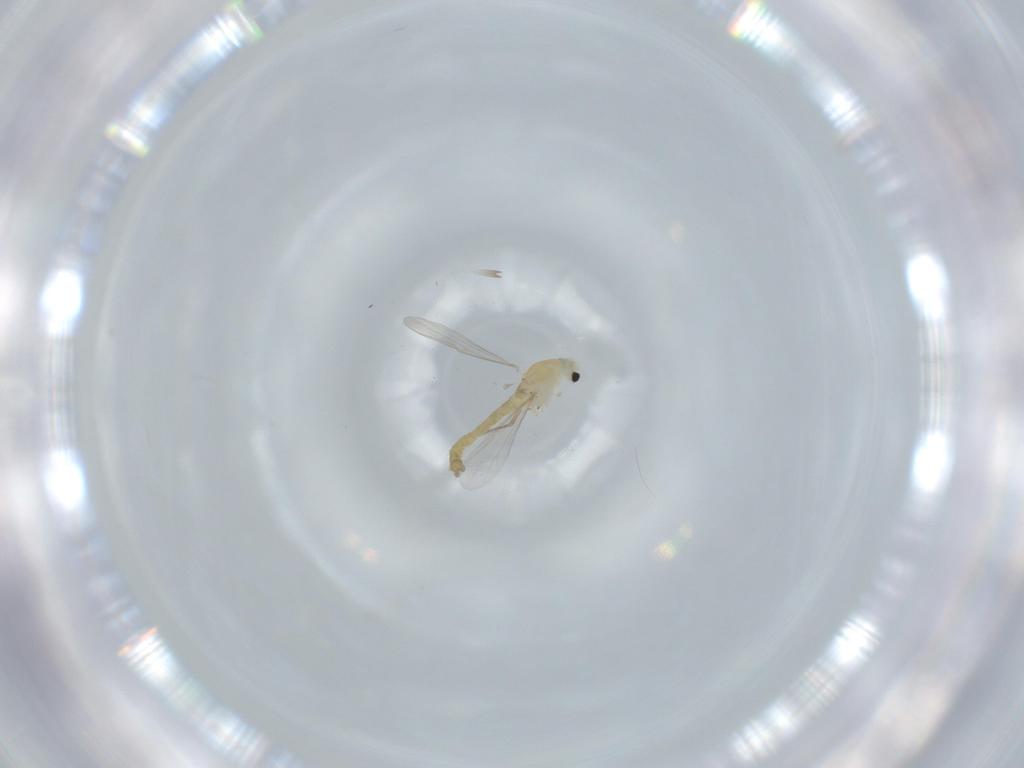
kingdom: Animalia
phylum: Arthropoda
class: Insecta
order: Diptera
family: Chironomidae
